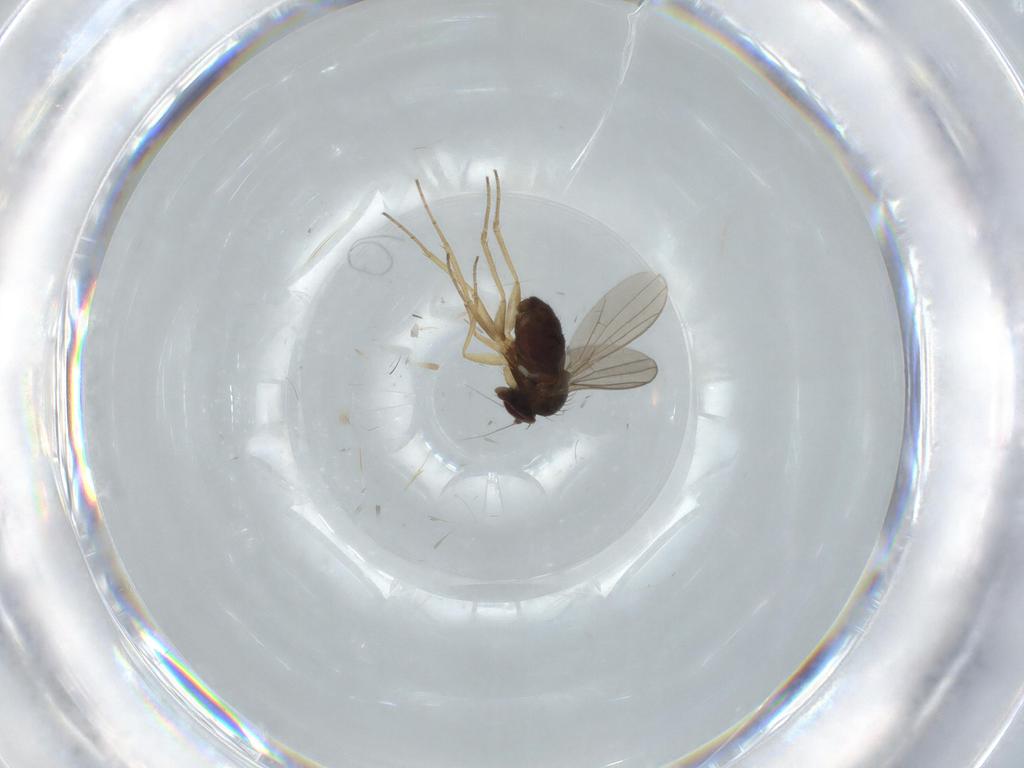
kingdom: Animalia
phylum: Arthropoda
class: Insecta
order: Diptera
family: Dolichopodidae
